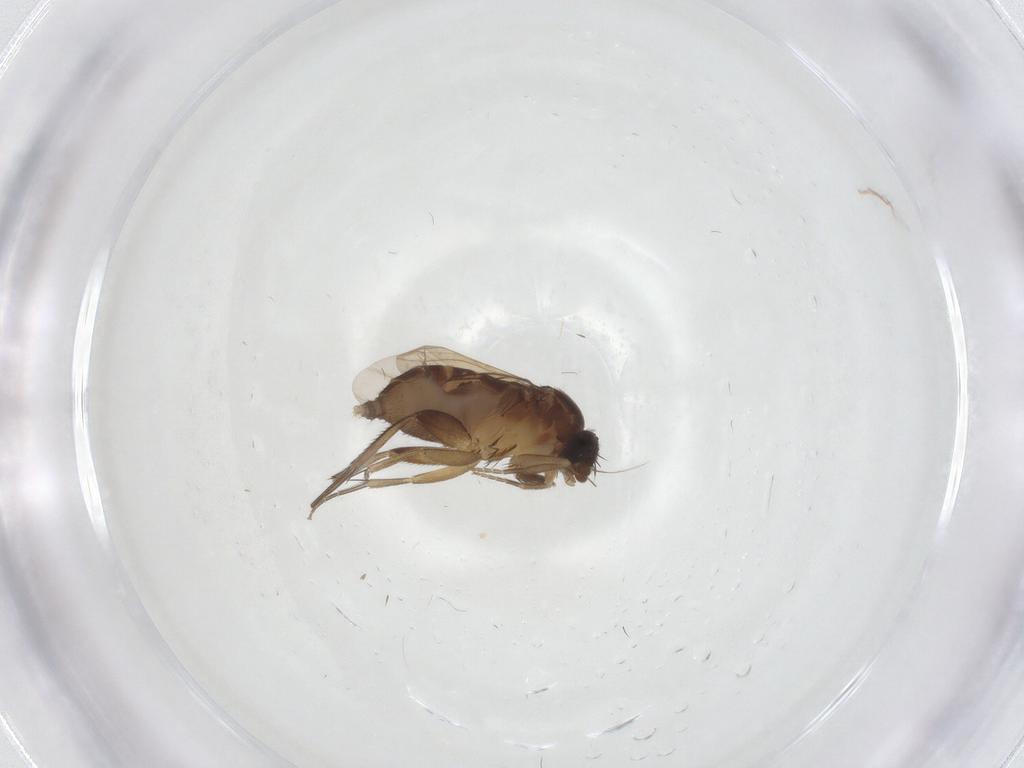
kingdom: Animalia
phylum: Arthropoda
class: Insecta
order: Diptera
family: Phoridae
